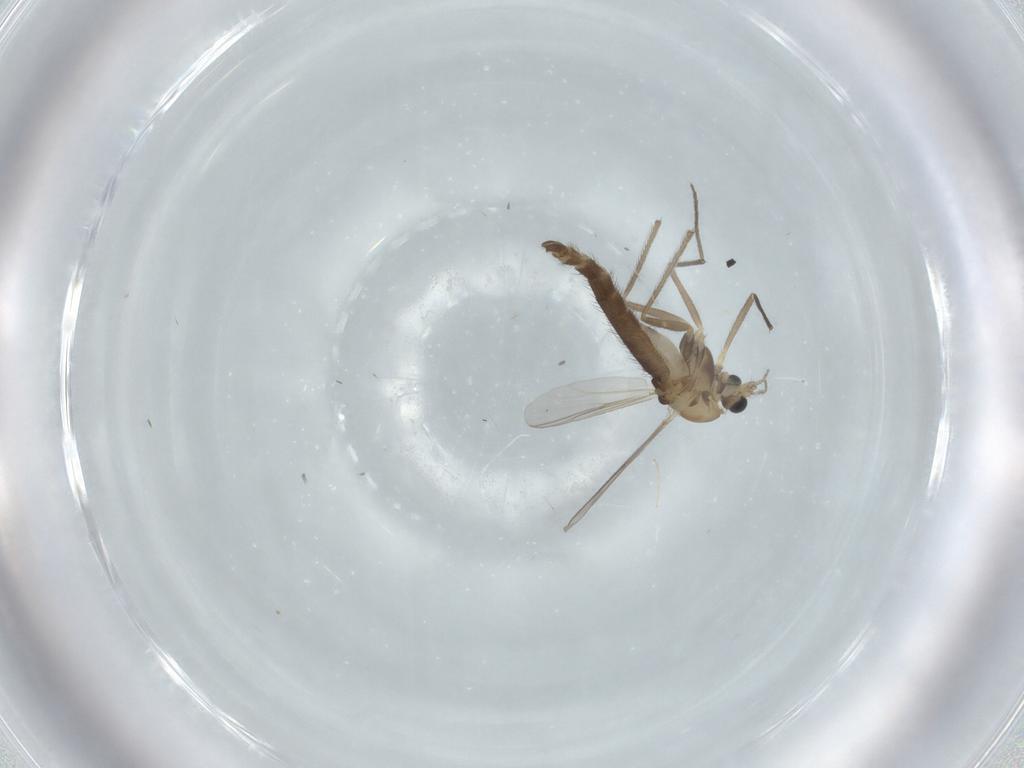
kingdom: Animalia
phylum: Arthropoda
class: Insecta
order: Diptera
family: Chironomidae
